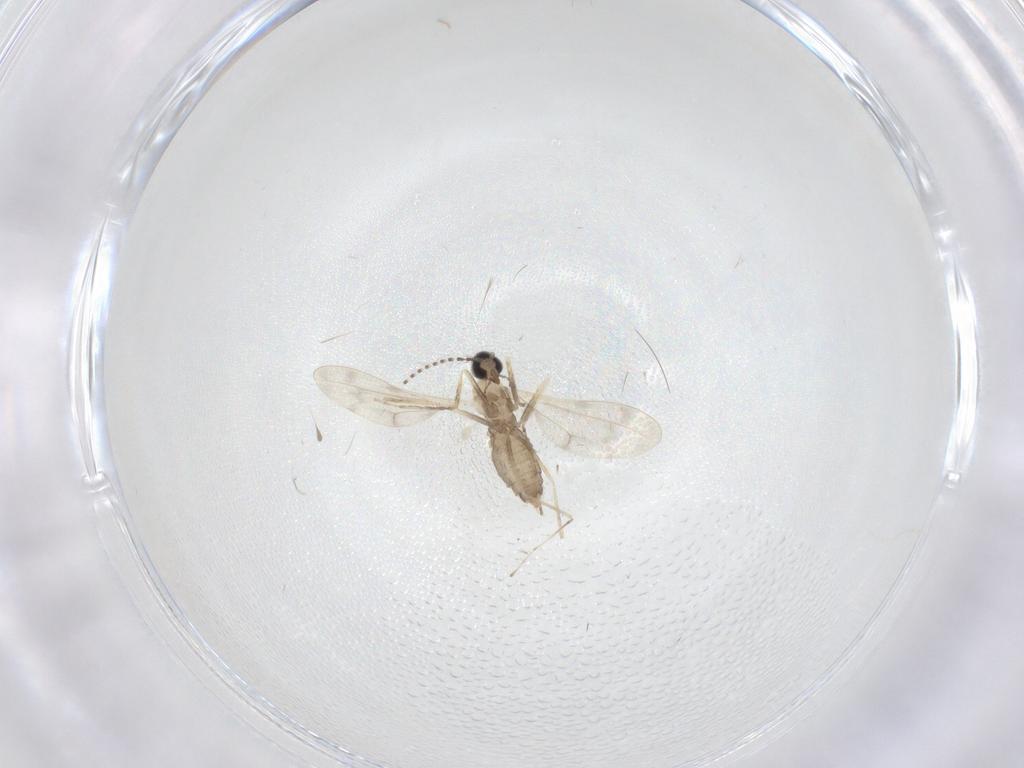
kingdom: Animalia
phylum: Arthropoda
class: Insecta
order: Diptera
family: Cecidomyiidae
